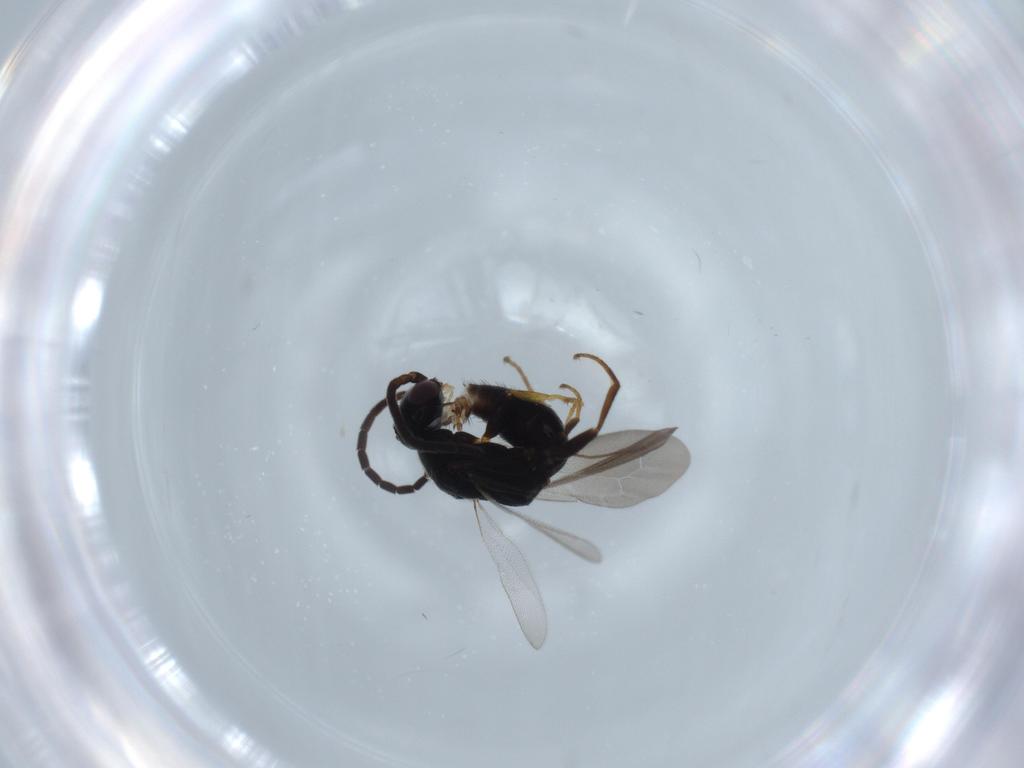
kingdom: Animalia
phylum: Arthropoda
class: Insecta
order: Hymenoptera
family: Bethylidae
